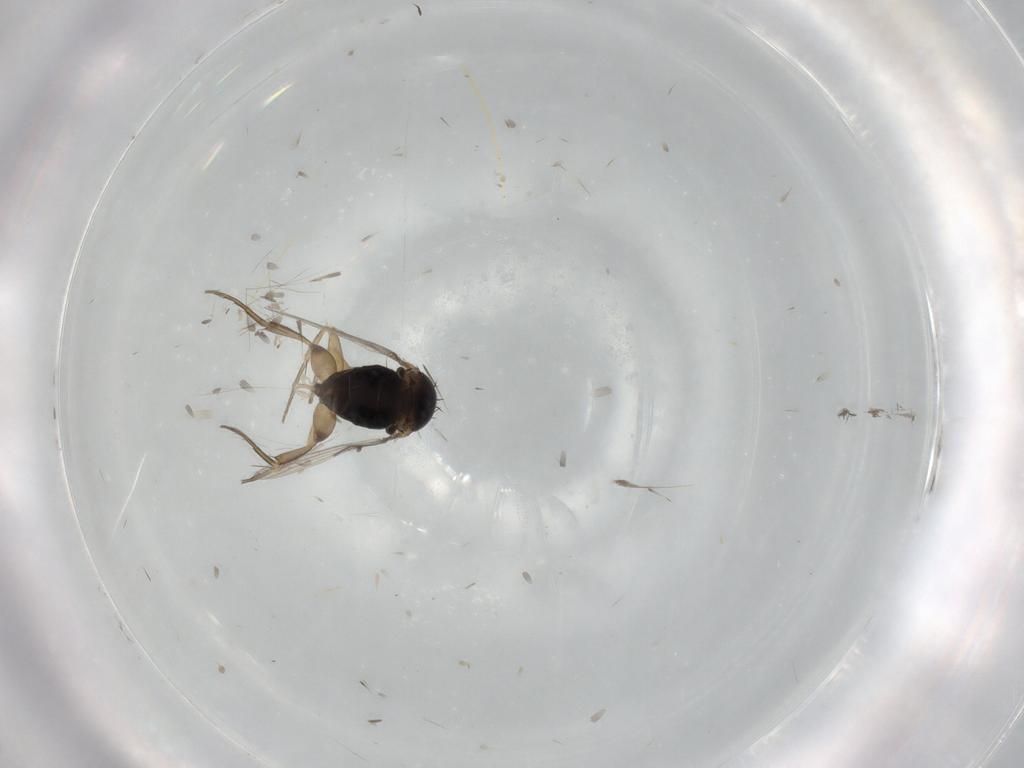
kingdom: Animalia
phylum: Arthropoda
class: Insecta
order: Diptera
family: Phoridae
